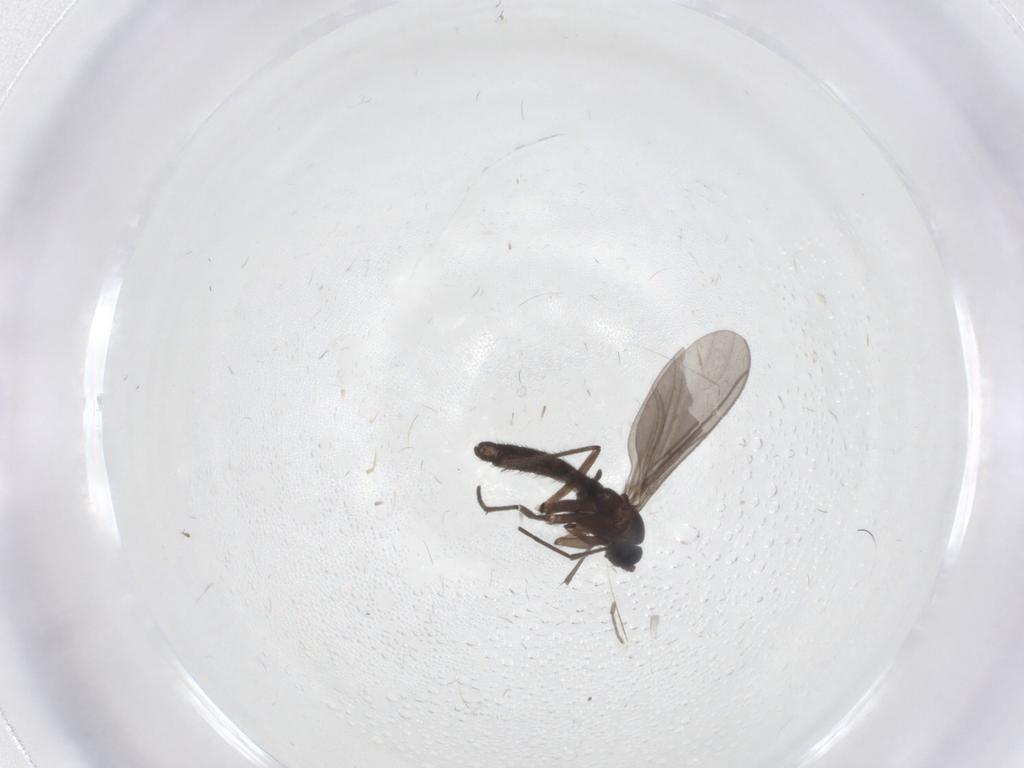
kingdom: Animalia
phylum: Arthropoda
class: Insecta
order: Diptera
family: Sciaridae
